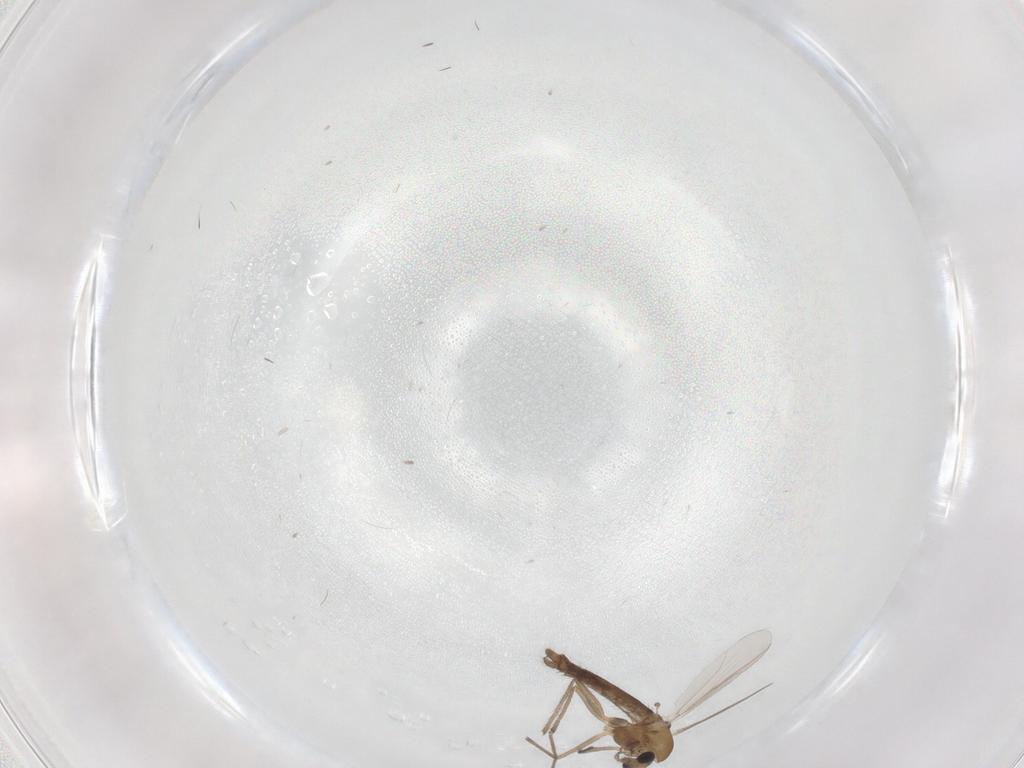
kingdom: Animalia
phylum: Arthropoda
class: Insecta
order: Diptera
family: Chironomidae
